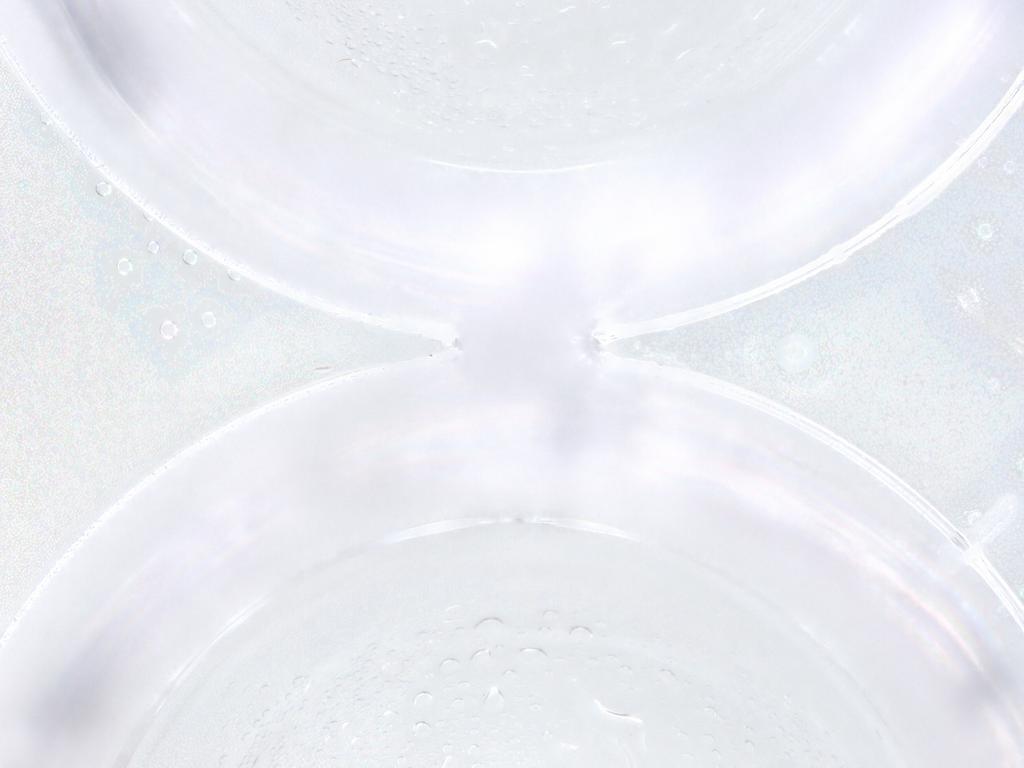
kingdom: Animalia
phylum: Arthropoda
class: Insecta
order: Diptera
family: Psychodidae
